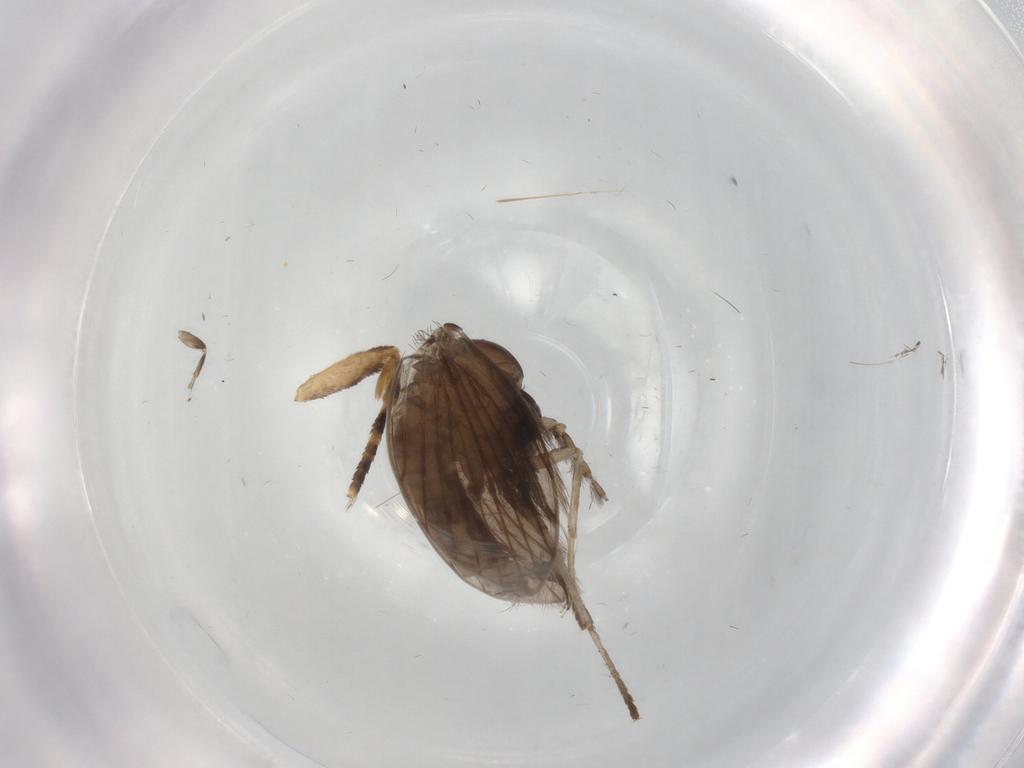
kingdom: Animalia
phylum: Arthropoda
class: Insecta
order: Diptera
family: Psychodidae
